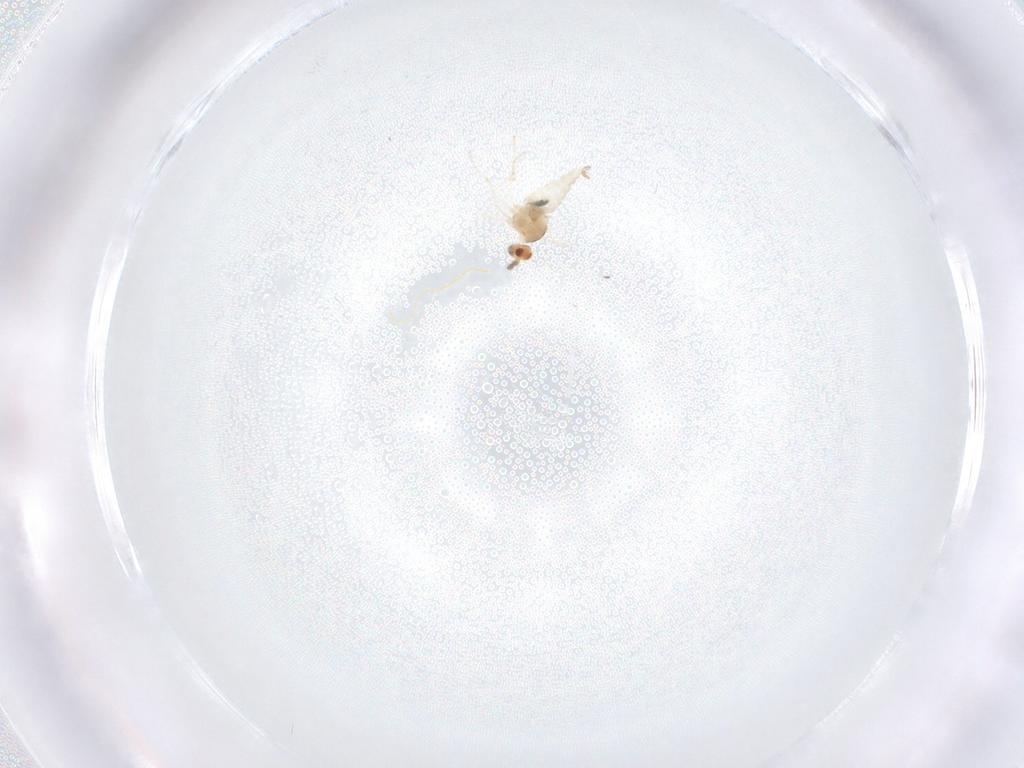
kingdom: Animalia
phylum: Arthropoda
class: Insecta
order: Diptera
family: Cecidomyiidae
